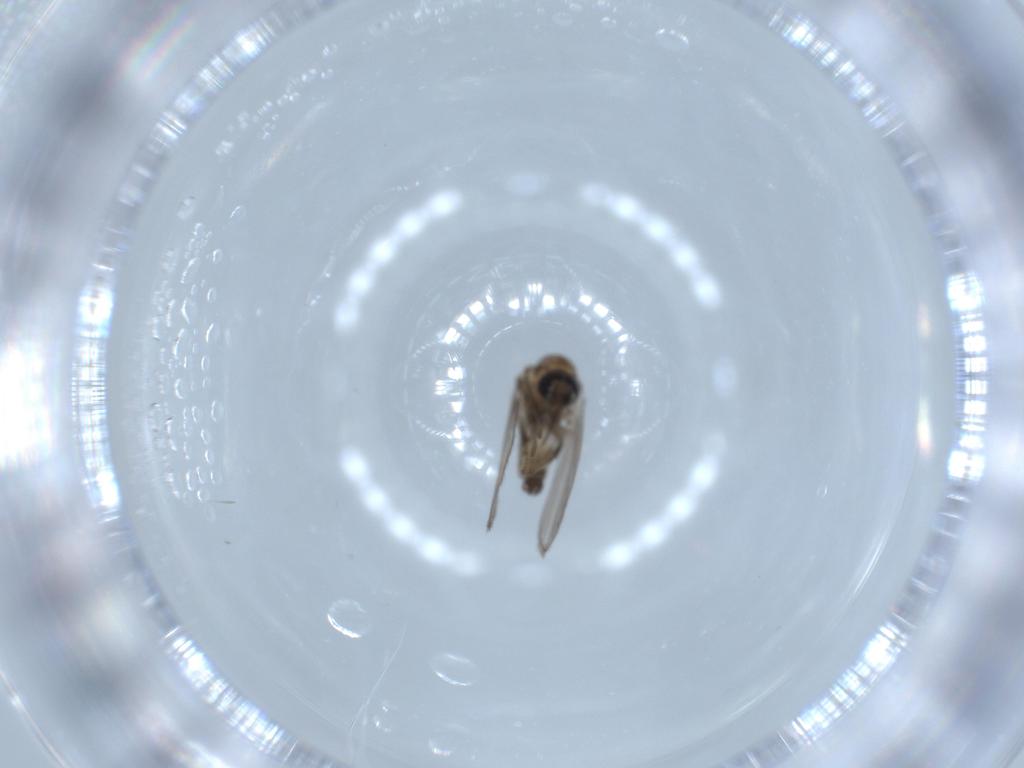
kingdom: Animalia
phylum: Arthropoda
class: Insecta
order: Diptera
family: Psychodidae
